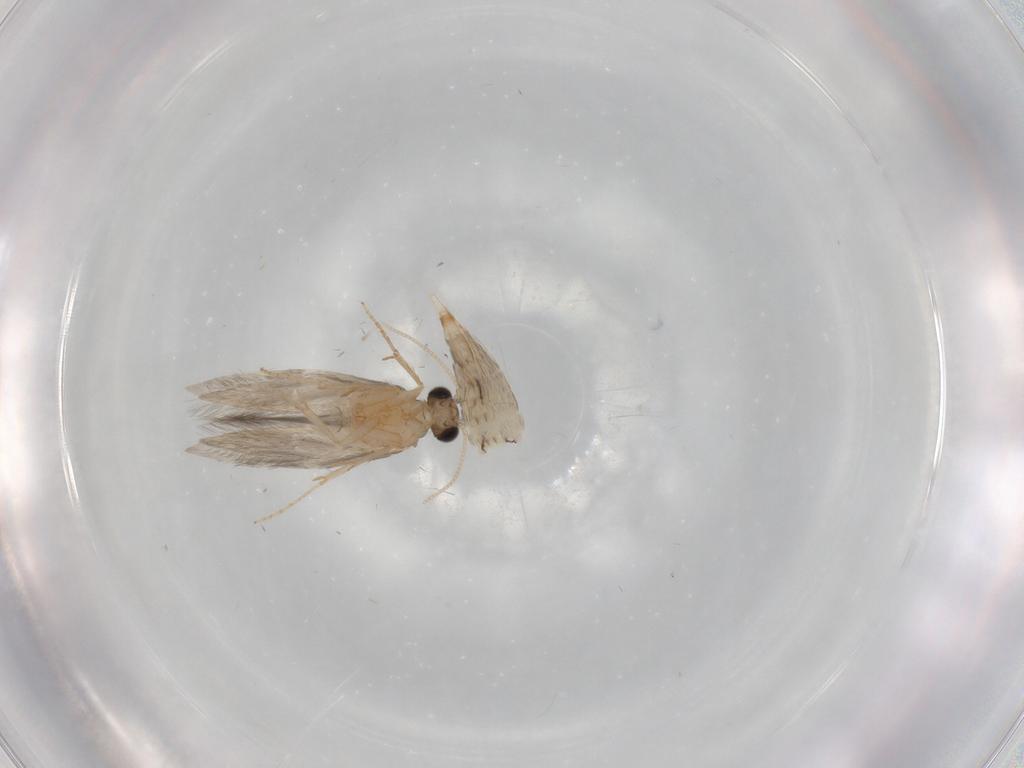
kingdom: Animalia
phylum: Arthropoda
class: Insecta
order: Trichoptera
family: Hydroptilidae
